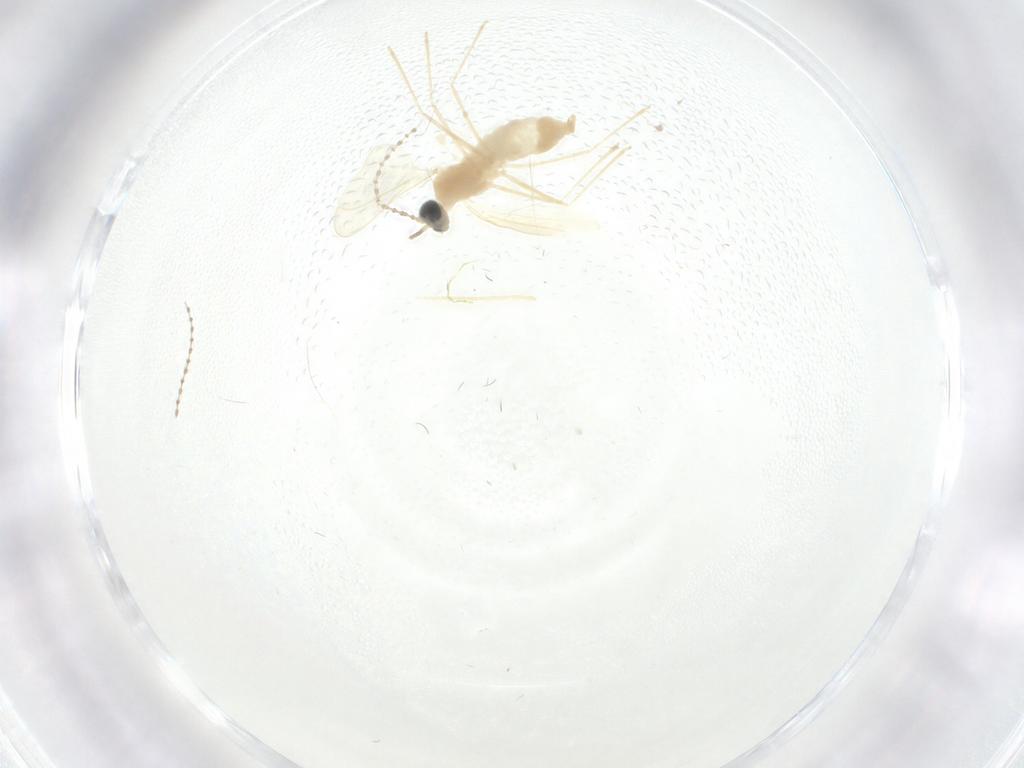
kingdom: Animalia
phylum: Arthropoda
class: Insecta
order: Diptera
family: Cecidomyiidae
